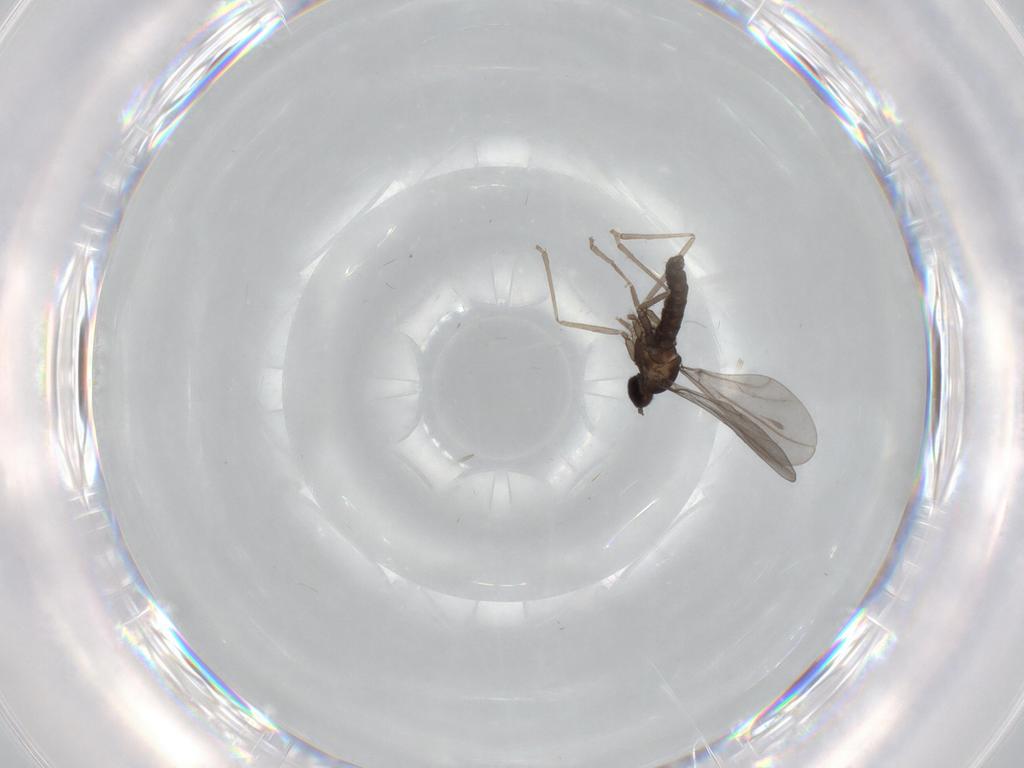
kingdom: Animalia
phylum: Arthropoda
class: Insecta
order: Diptera
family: Cecidomyiidae
